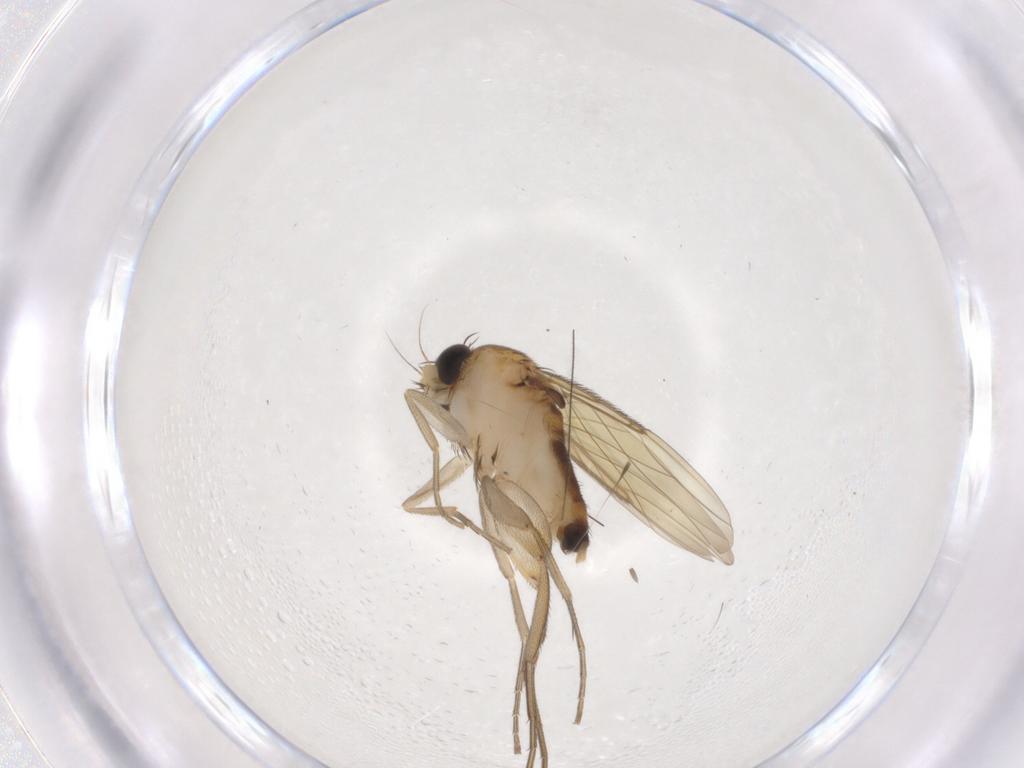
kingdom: Animalia
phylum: Arthropoda
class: Insecta
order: Diptera
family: Phoridae
